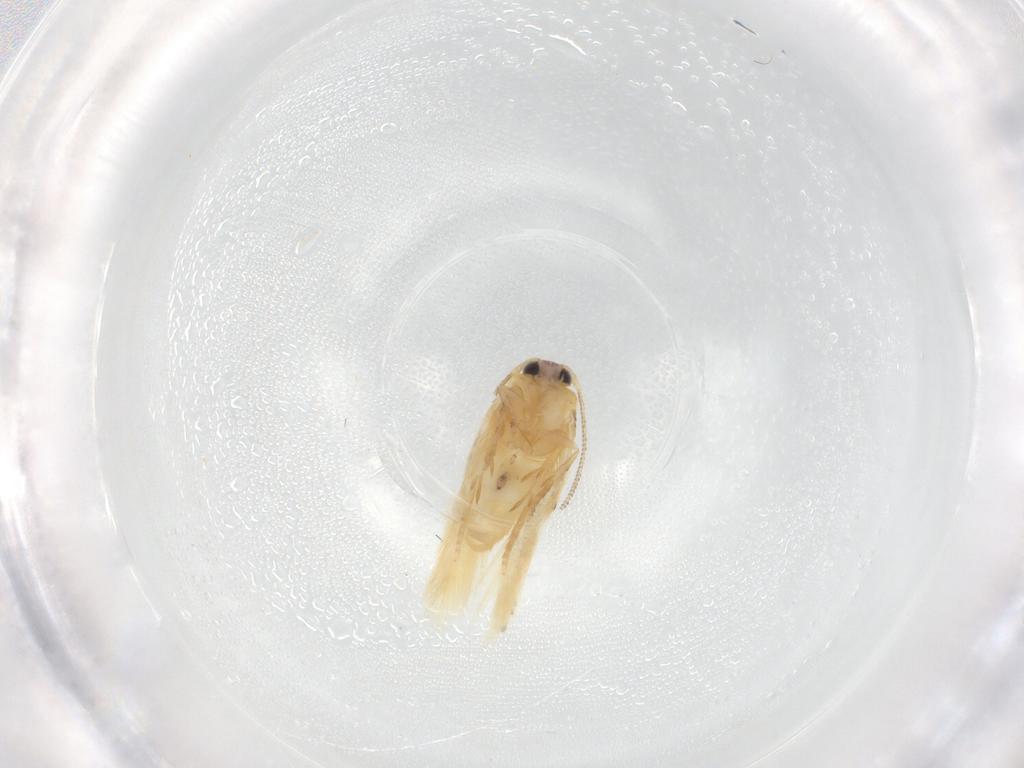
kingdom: Animalia
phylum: Arthropoda
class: Insecta
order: Lepidoptera
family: Nepticulidae
